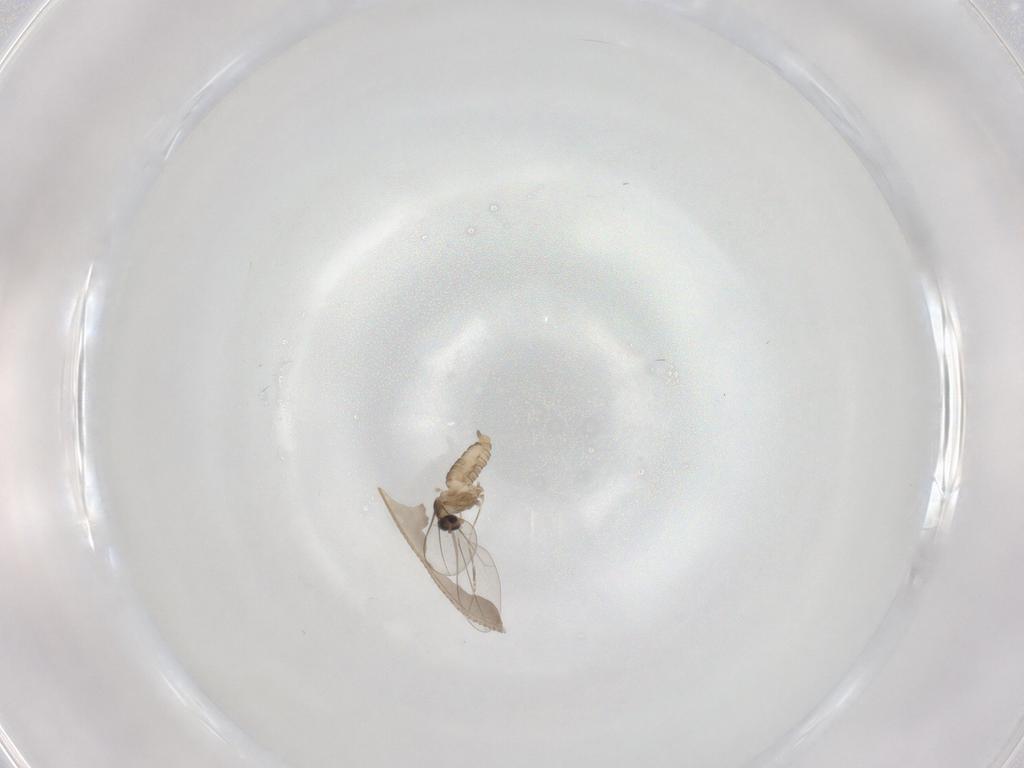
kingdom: Animalia
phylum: Arthropoda
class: Insecta
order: Diptera
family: Cecidomyiidae
